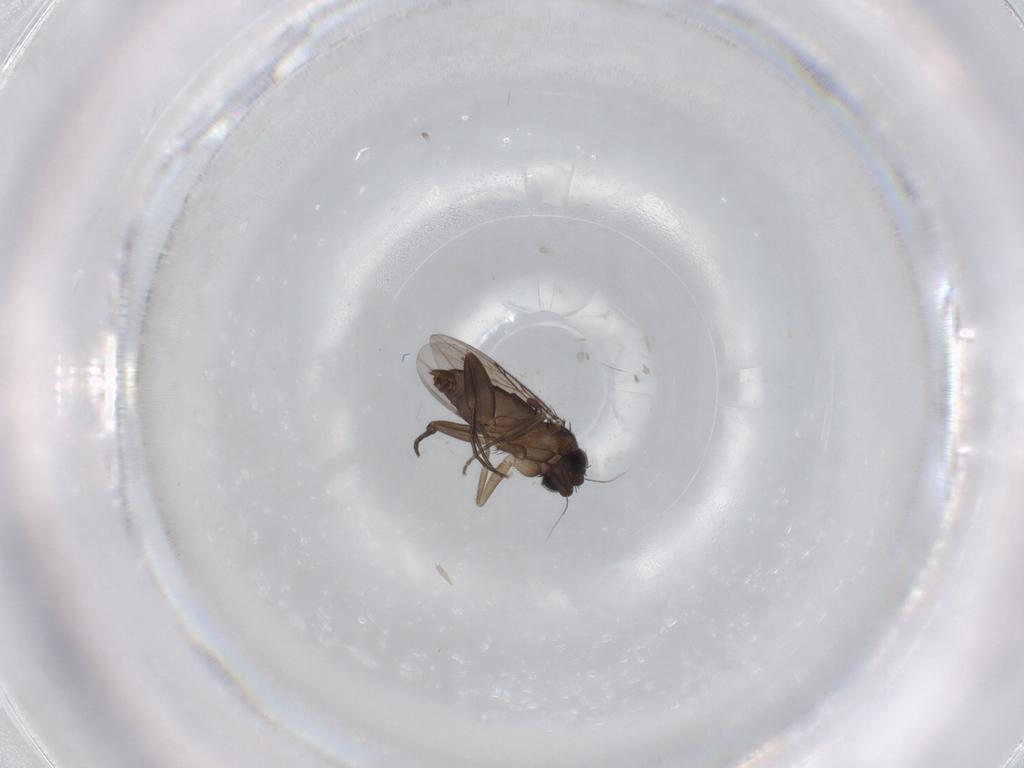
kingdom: Animalia
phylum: Arthropoda
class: Insecta
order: Diptera
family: Phoridae
